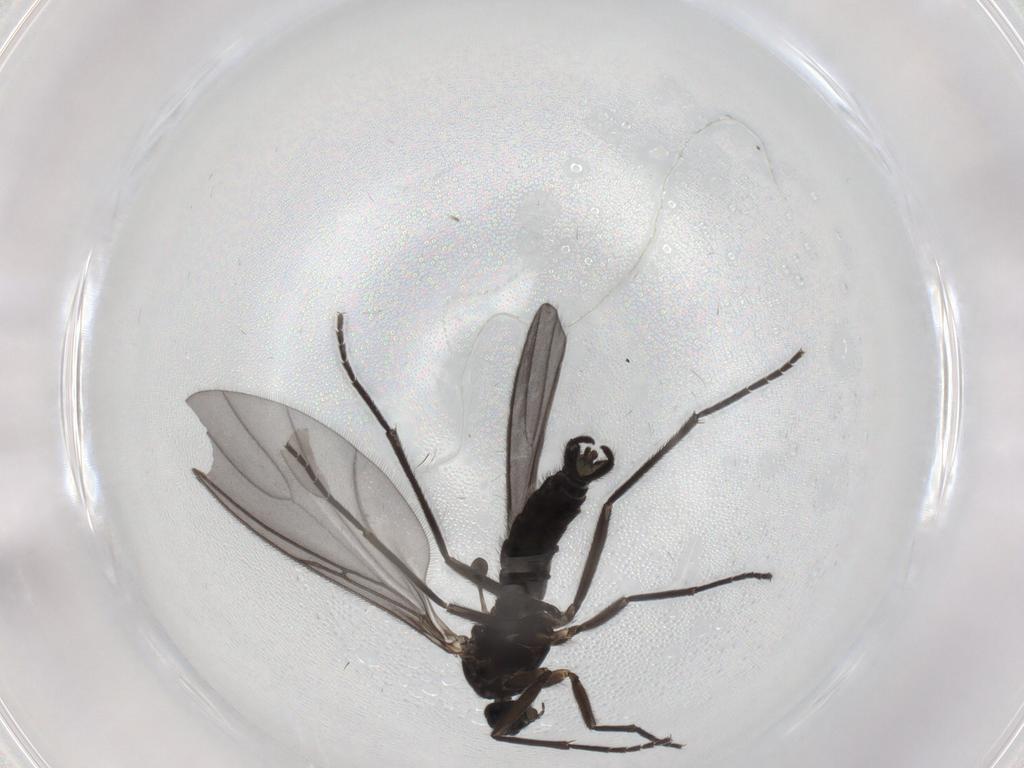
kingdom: Animalia
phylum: Arthropoda
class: Insecta
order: Diptera
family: Sciaridae
